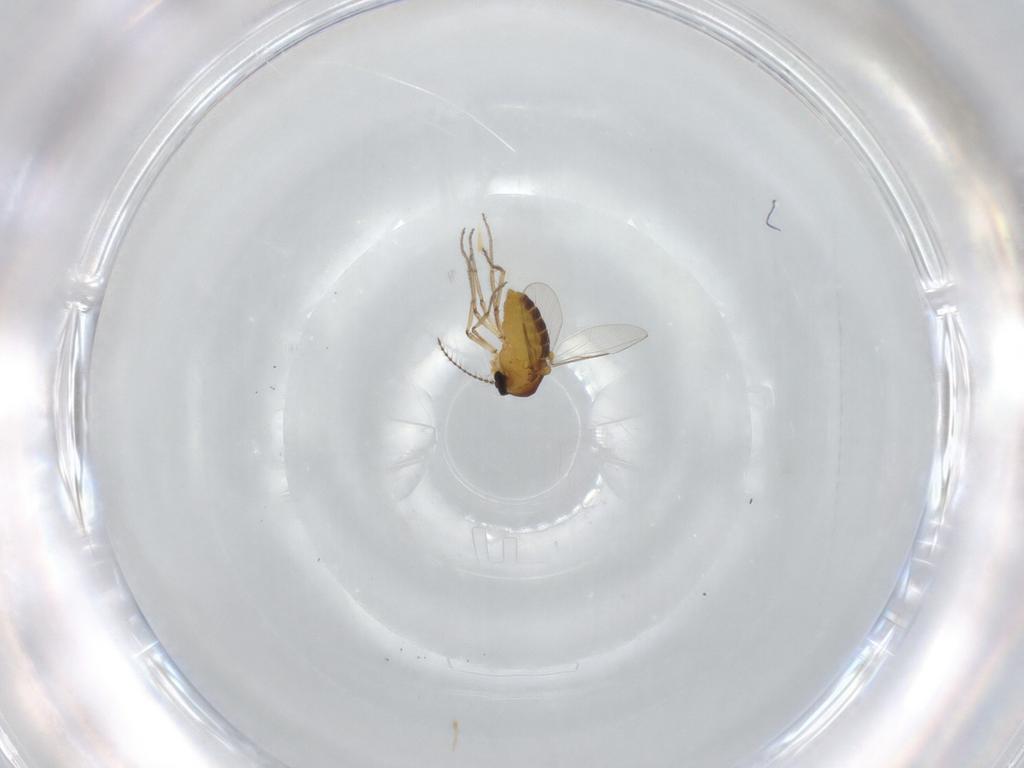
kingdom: Animalia
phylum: Arthropoda
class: Insecta
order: Diptera
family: Ceratopogonidae
